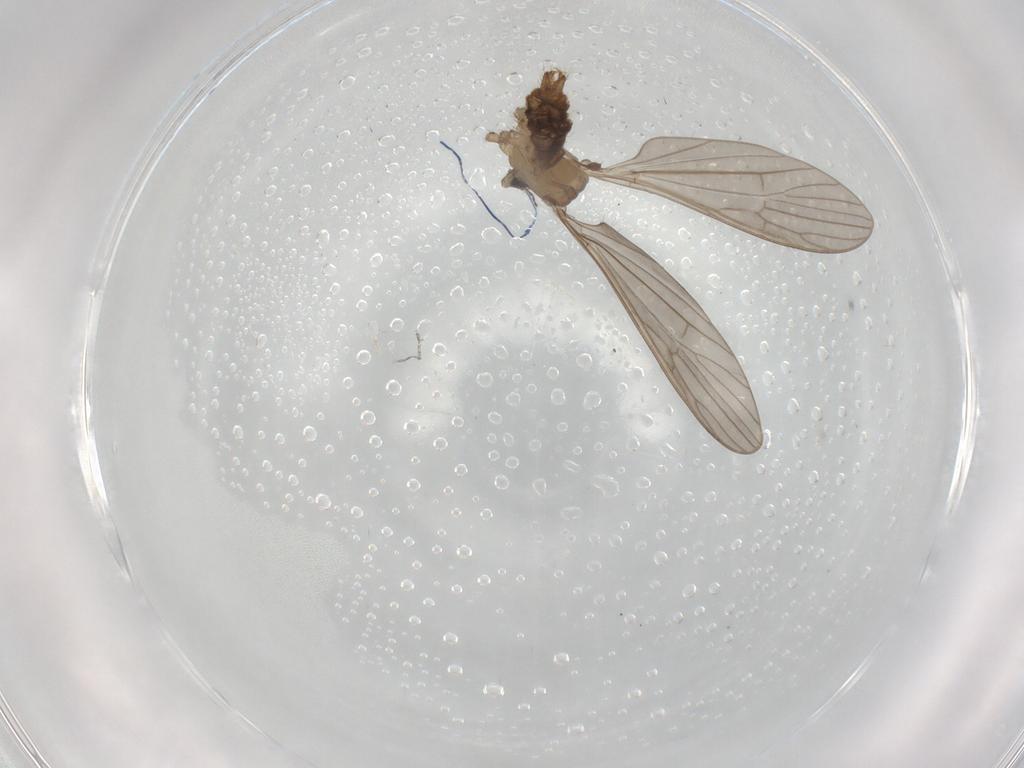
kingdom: Animalia
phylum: Arthropoda
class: Insecta
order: Diptera
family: Limoniidae
